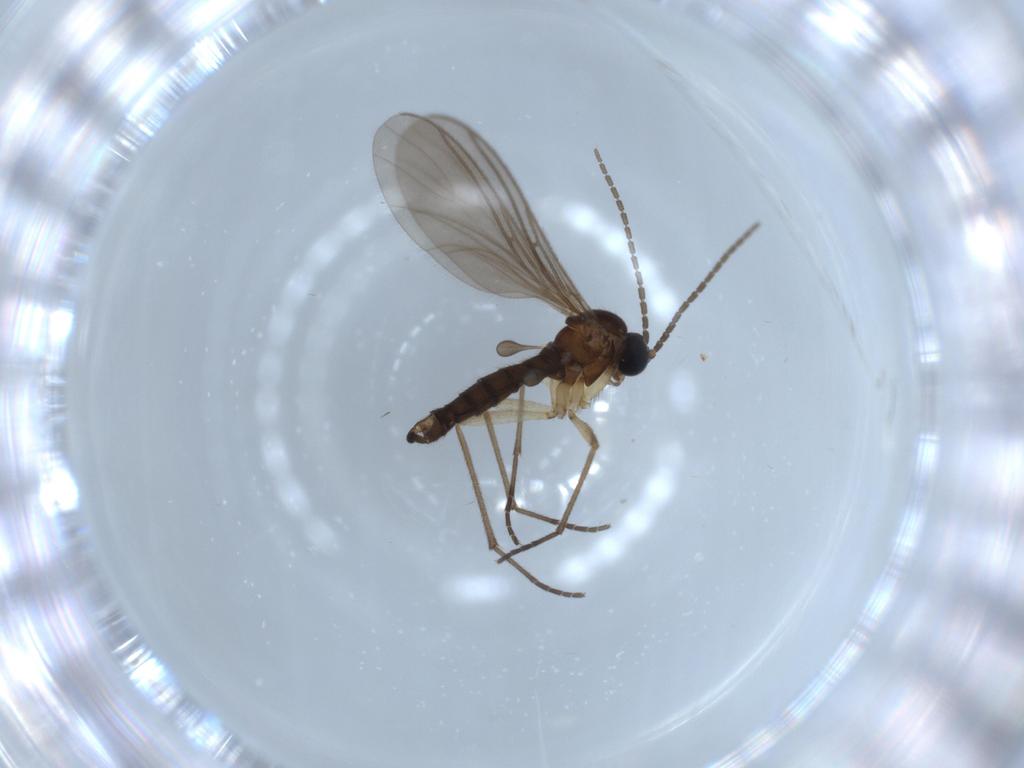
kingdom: Animalia
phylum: Arthropoda
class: Insecta
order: Diptera
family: Sciaridae
